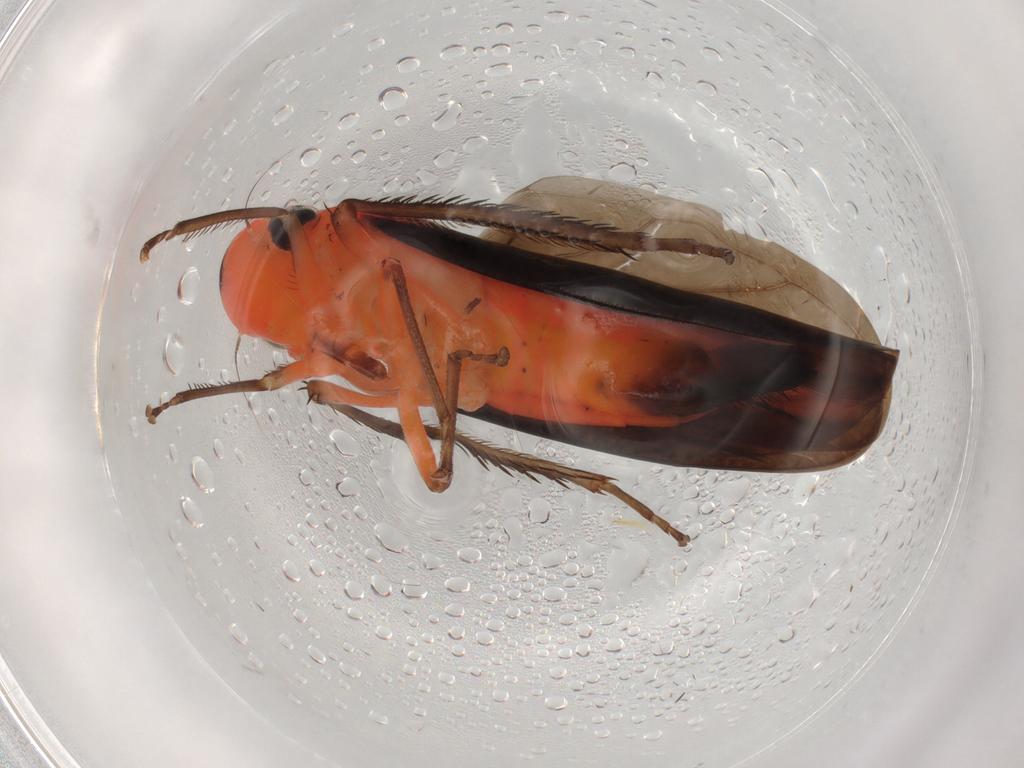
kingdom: Animalia
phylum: Arthropoda
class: Insecta
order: Hemiptera
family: Cicadellidae
